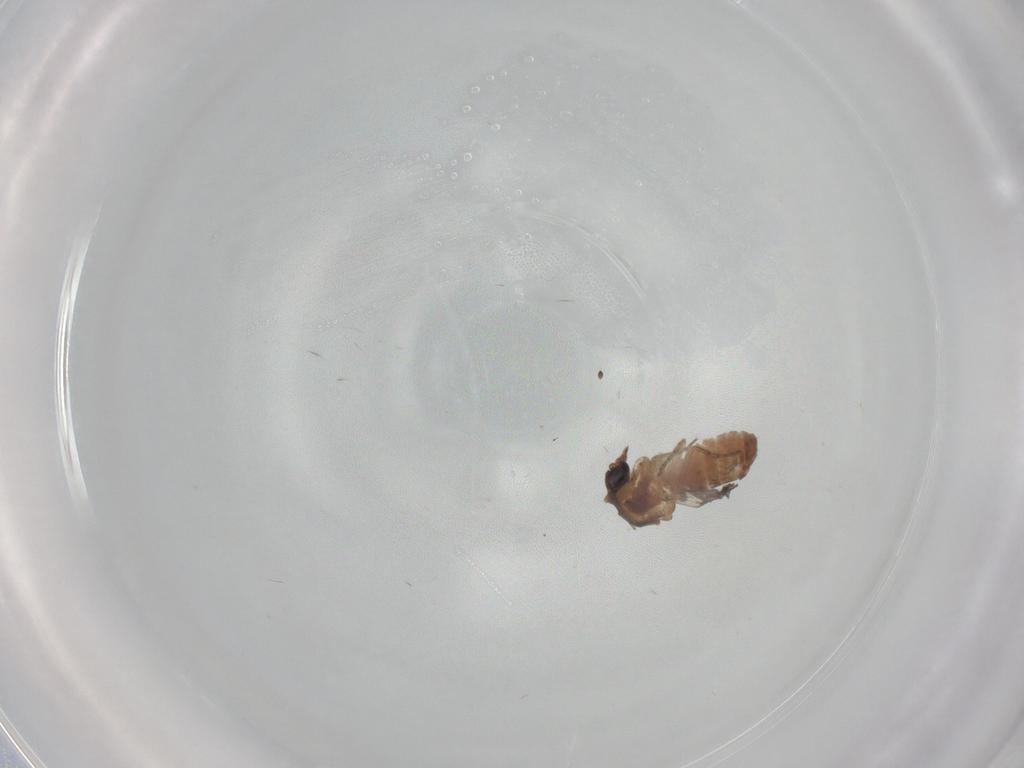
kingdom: Animalia
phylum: Arthropoda
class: Insecta
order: Diptera
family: Ceratopogonidae
